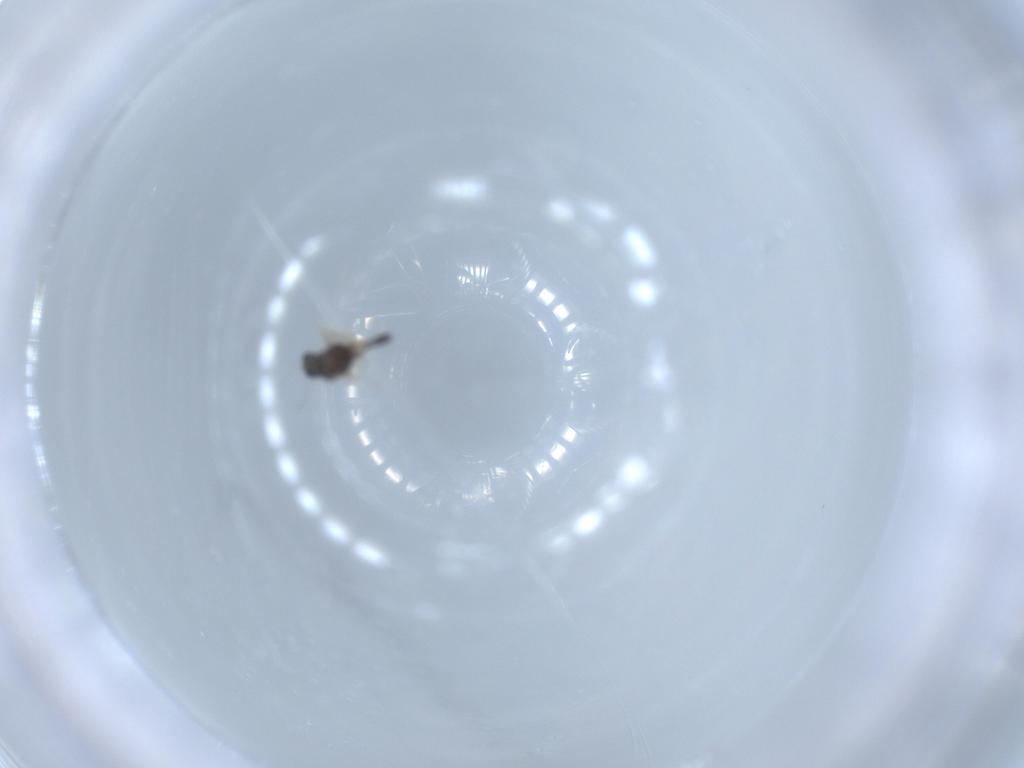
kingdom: Animalia
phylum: Arthropoda
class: Insecta
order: Diptera
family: Chironomidae
